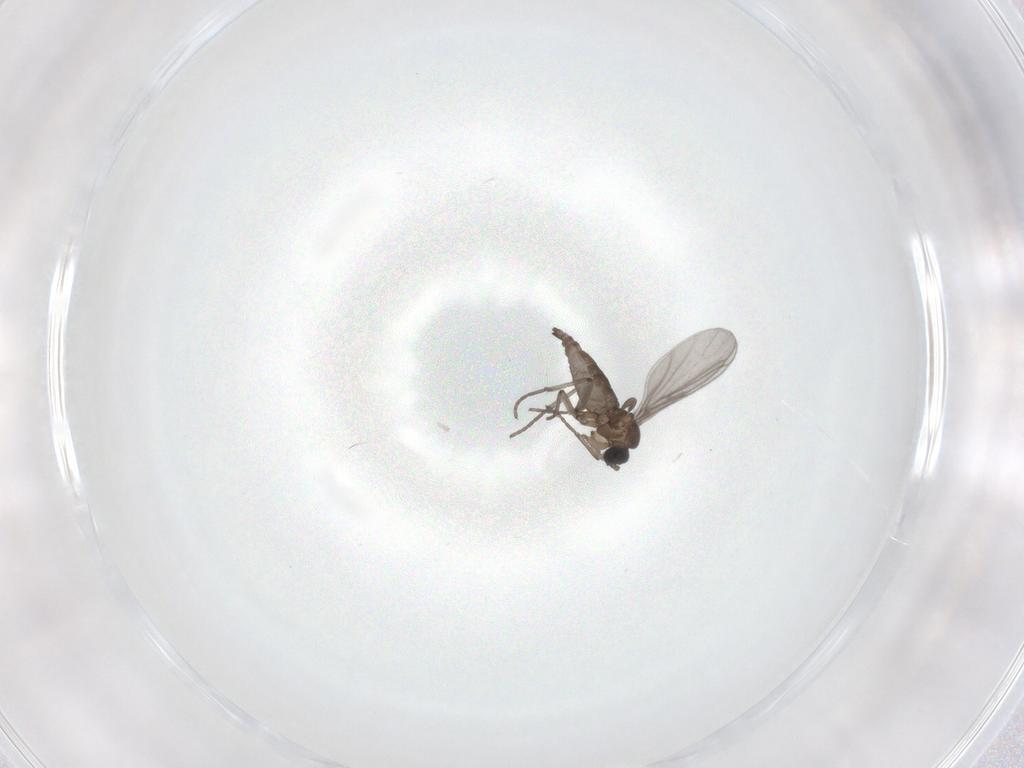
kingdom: Animalia
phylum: Arthropoda
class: Insecta
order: Diptera
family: Sciaridae
